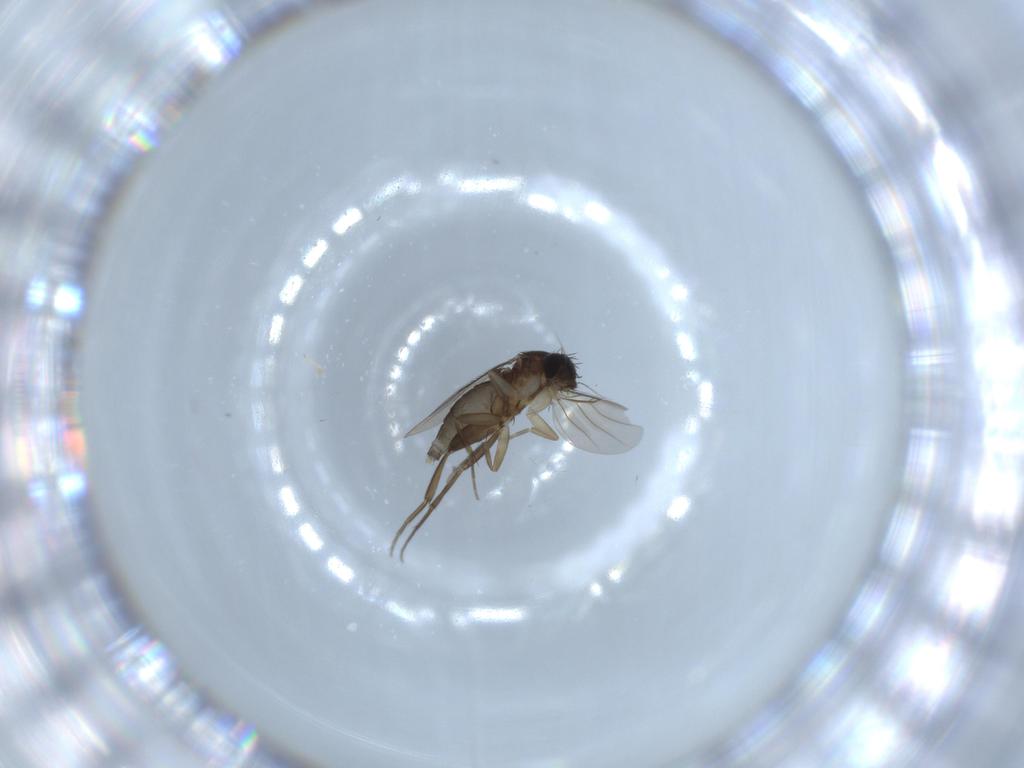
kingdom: Animalia
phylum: Arthropoda
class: Insecta
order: Diptera
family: Phoridae
